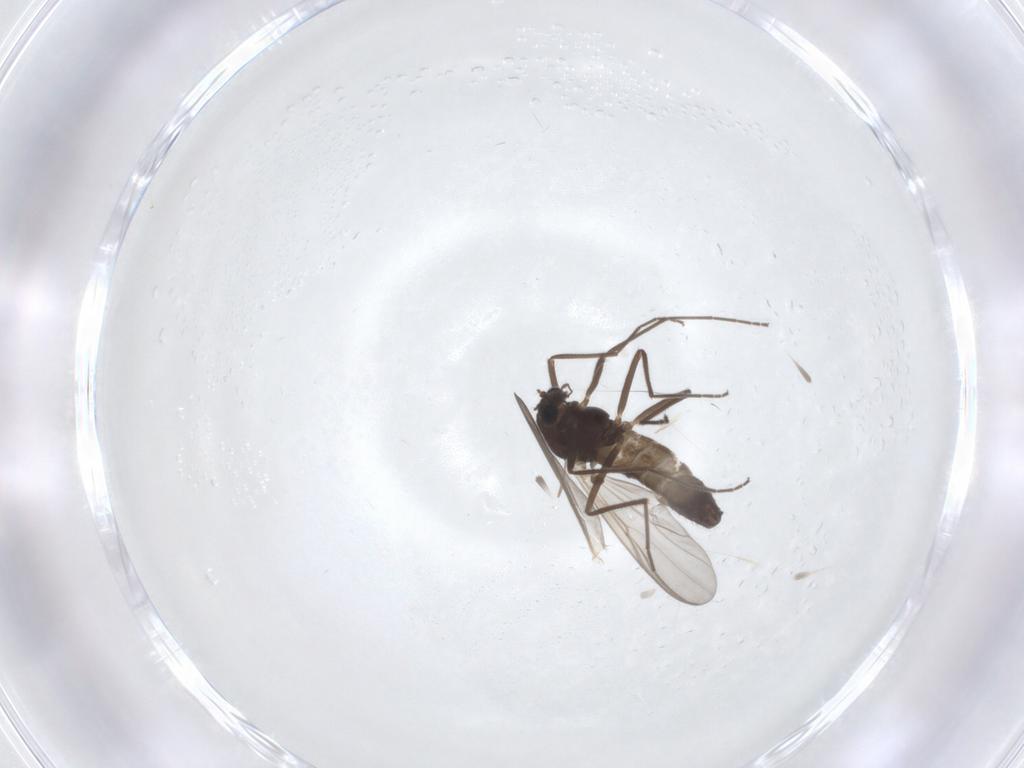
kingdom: Animalia
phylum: Arthropoda
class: Insecta
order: Diptera
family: Chironomidae
